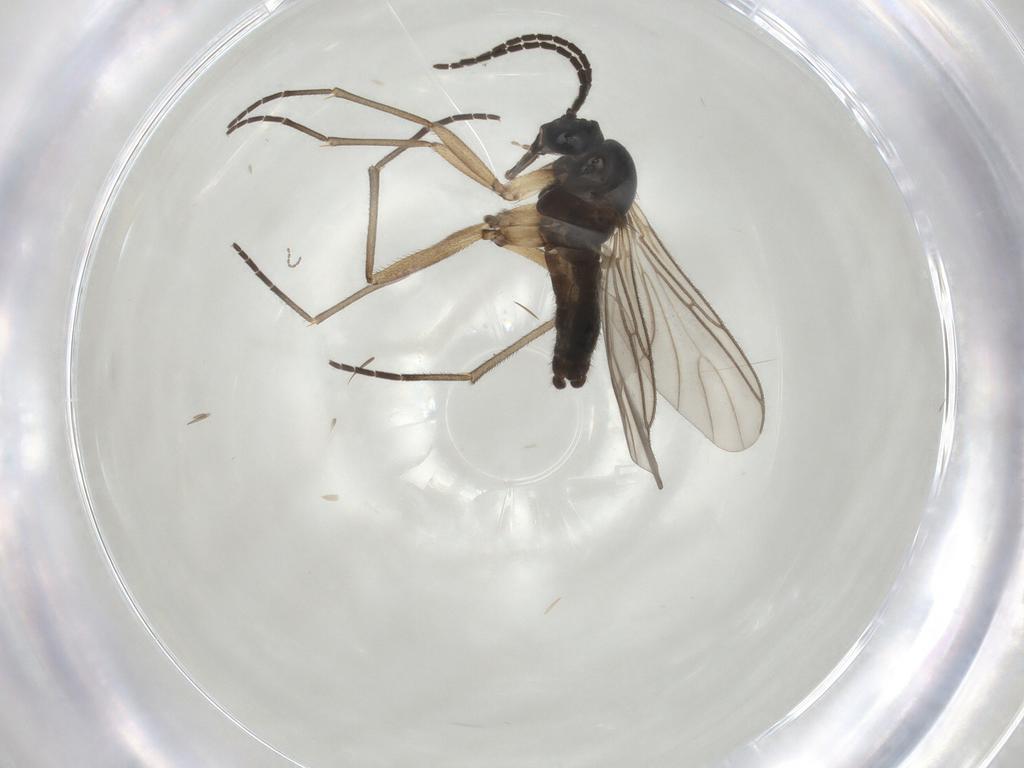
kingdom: Animalia
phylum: Arthropoda
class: Insecta
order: Diptera
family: Sciaridae
